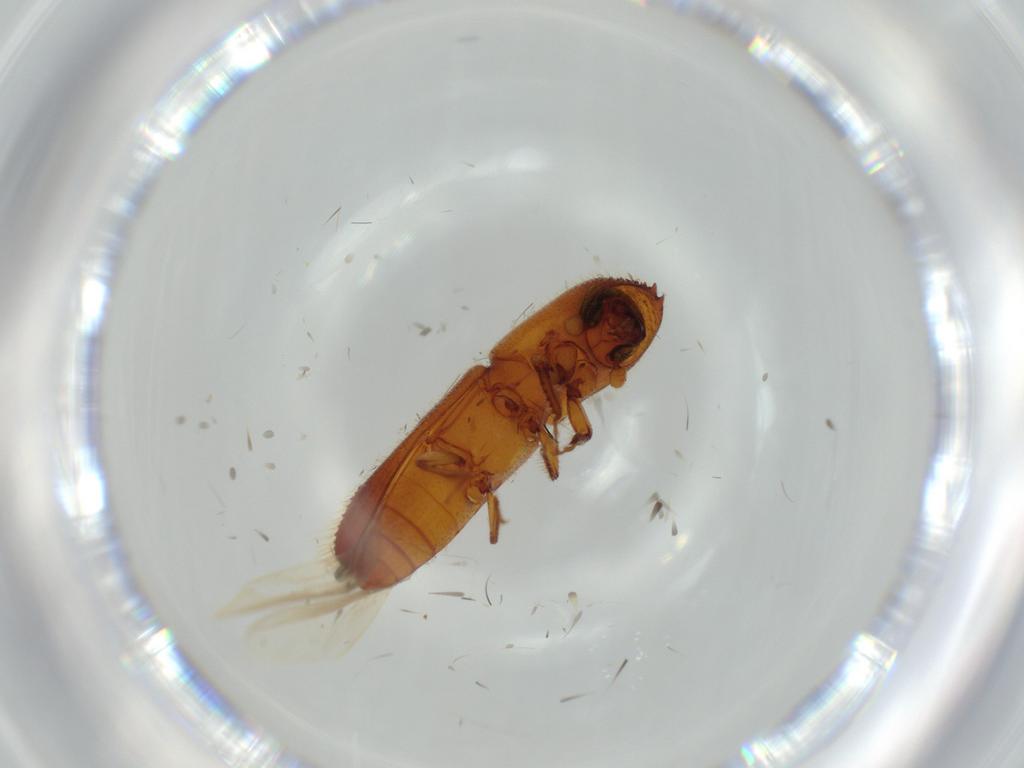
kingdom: Animalia
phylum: Arthropoda
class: Insecta
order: Coleoptera
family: Curculionidae
